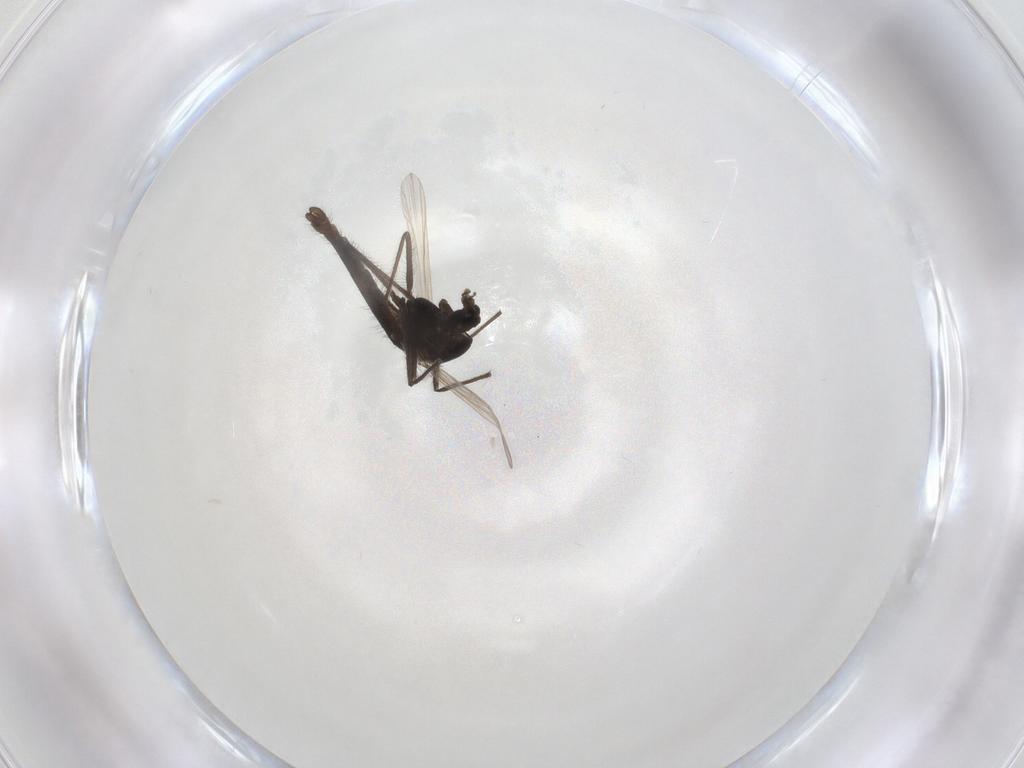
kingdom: Animalia
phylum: Arthropoda
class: Insecta
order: Diptera
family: Chironomidae
